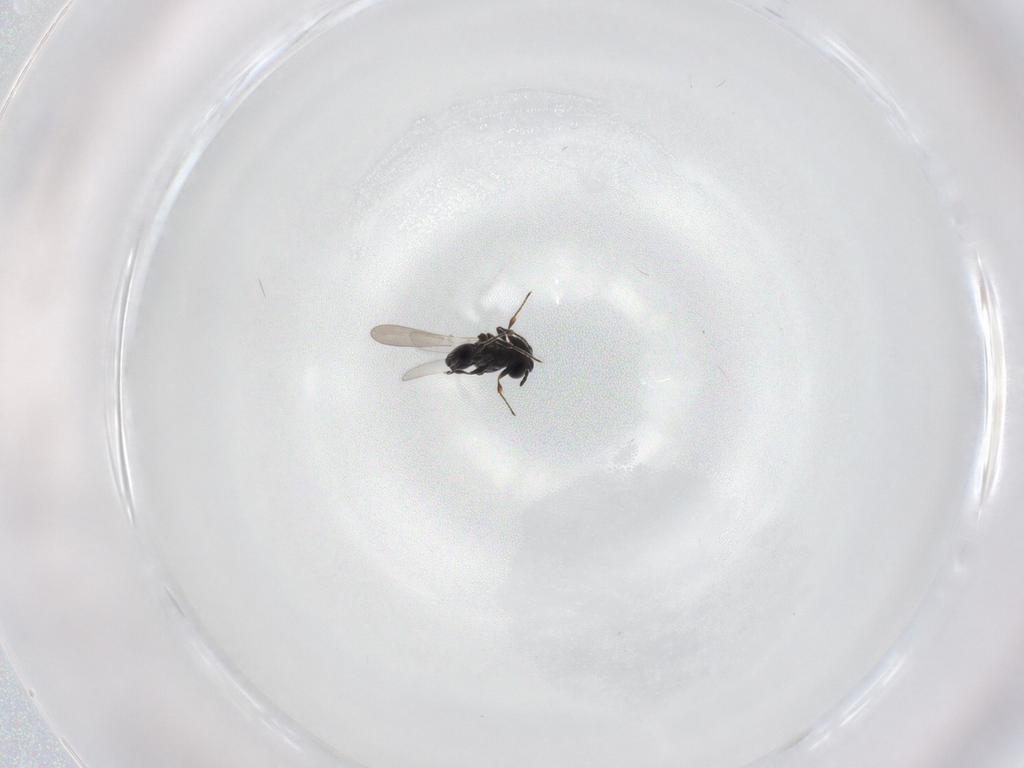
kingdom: Animalia
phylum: Arthropoda
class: Insecta
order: Hymenoptera
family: Platygastridae
